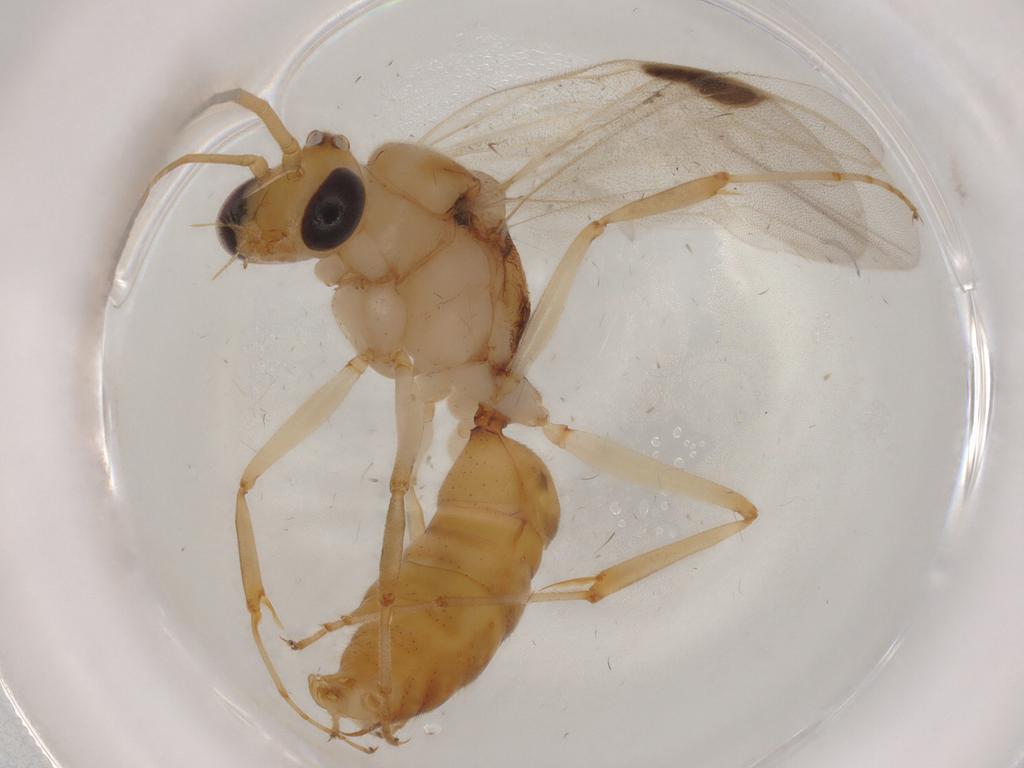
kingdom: Animalia
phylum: Arthropoda
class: Insecta
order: Hymenoptera
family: Formicidae
